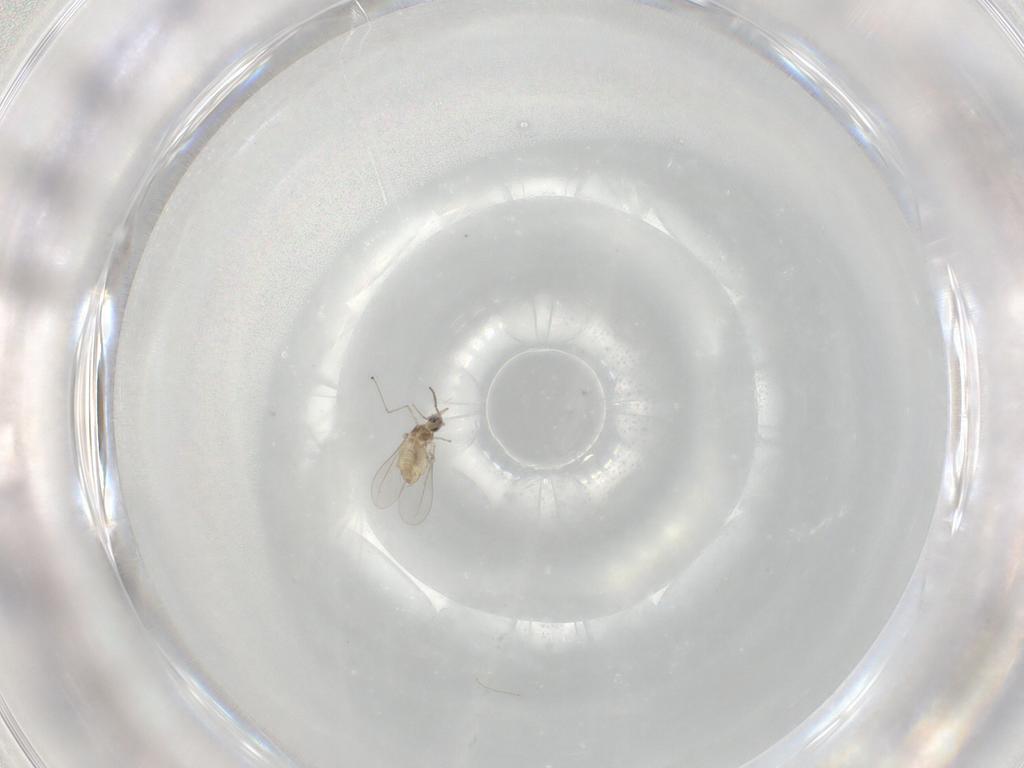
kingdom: Animalia
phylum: Arthropoda
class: Insecta
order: Diptera
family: Cecidomyiidae
